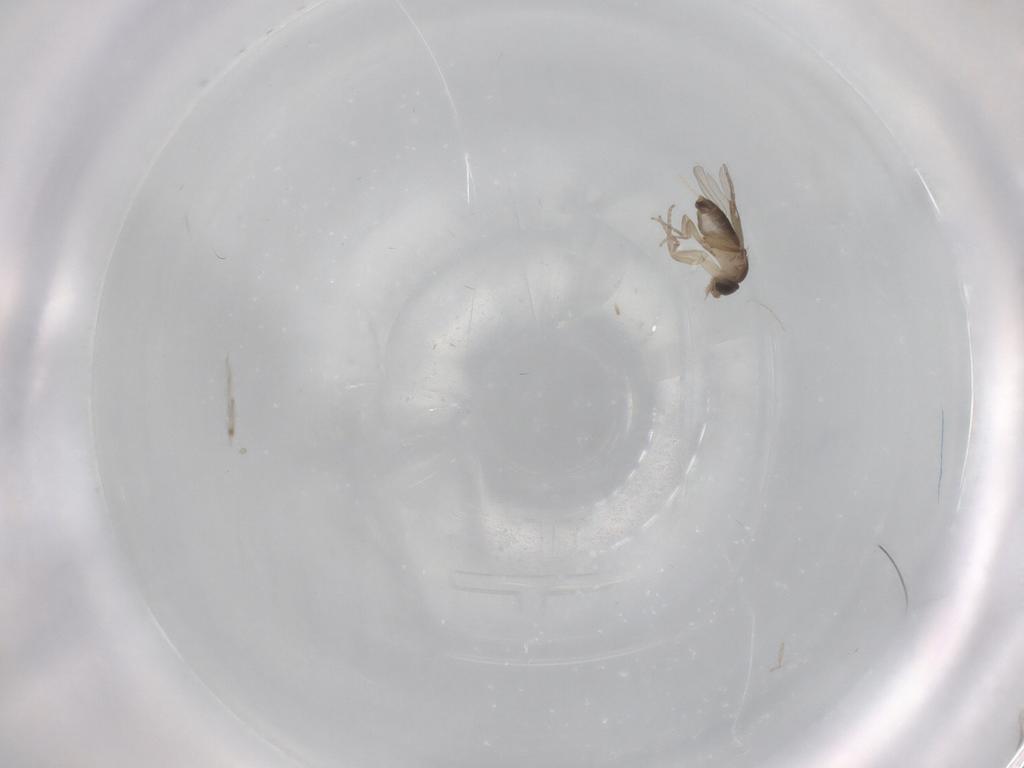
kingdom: Animalia
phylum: Arthropoda
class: Insecta
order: Diptera
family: Phoridae
